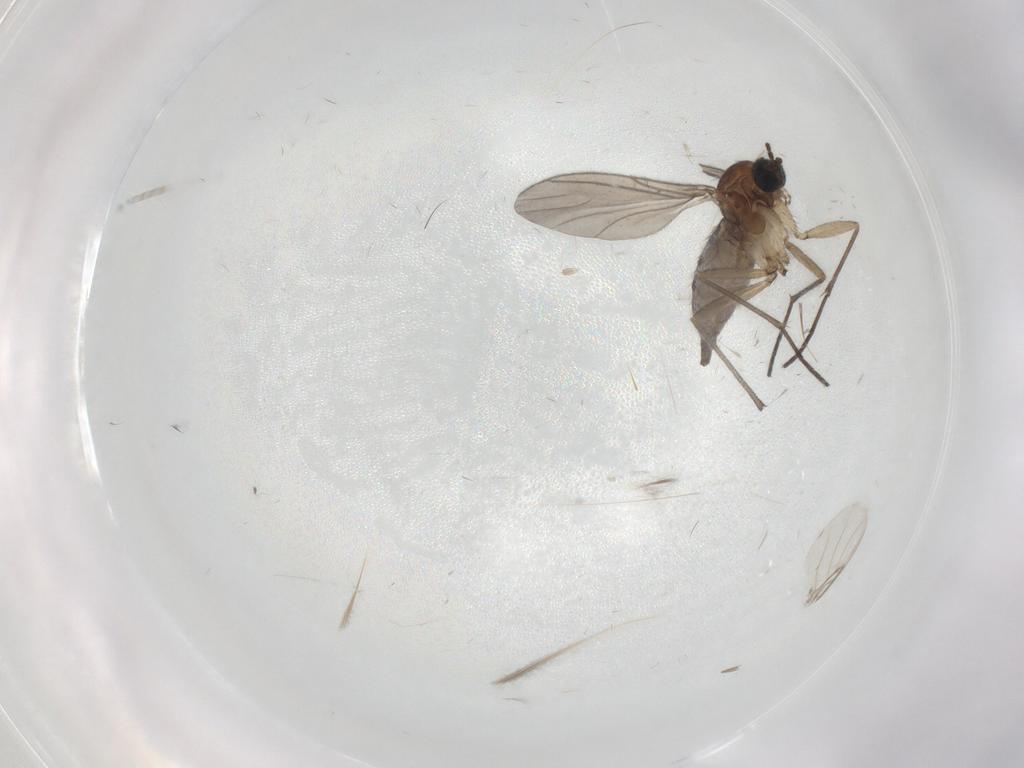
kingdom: Animalia
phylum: Arthropoda
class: Insecta
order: Diptera
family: Phoridae
